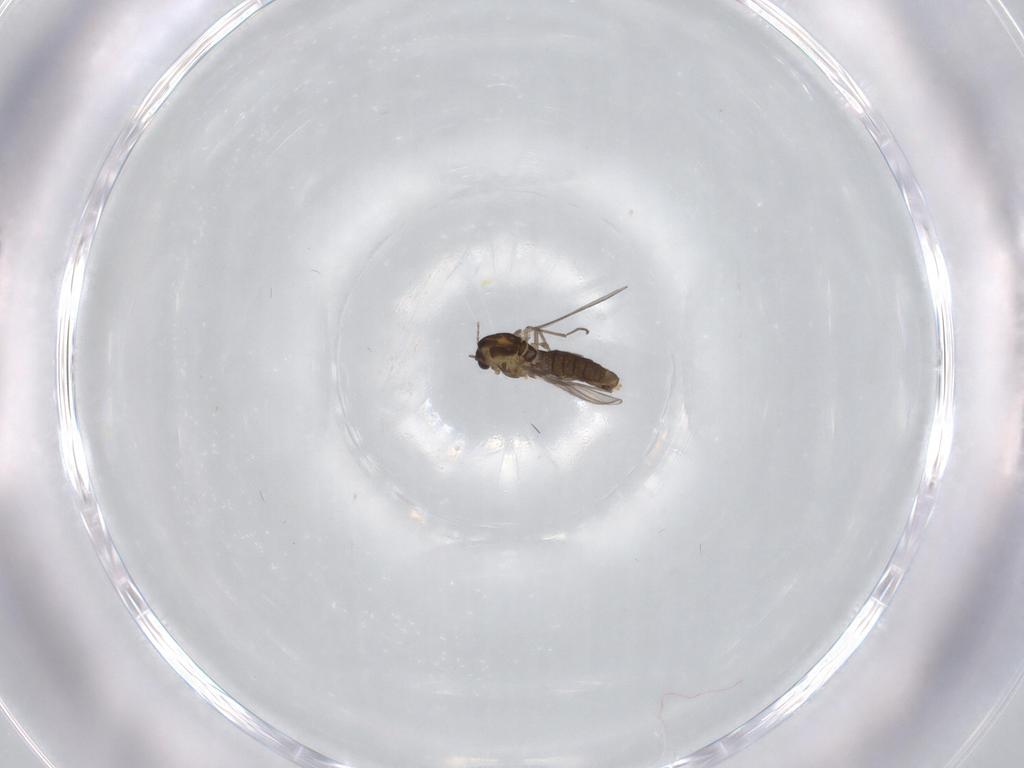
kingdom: Animalia
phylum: Arthropoda
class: Insecta
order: Diptera
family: Chironomidae
